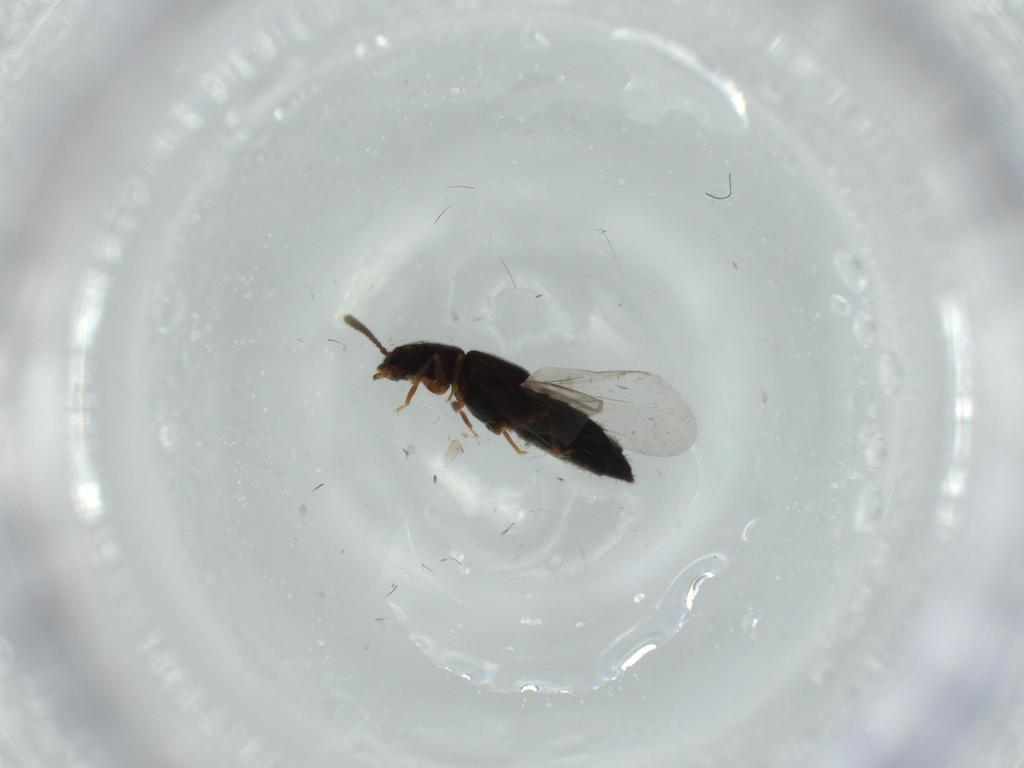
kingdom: Animalia
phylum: Arthropoda
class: Insecta
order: Coleoptera
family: Staphylinidae
